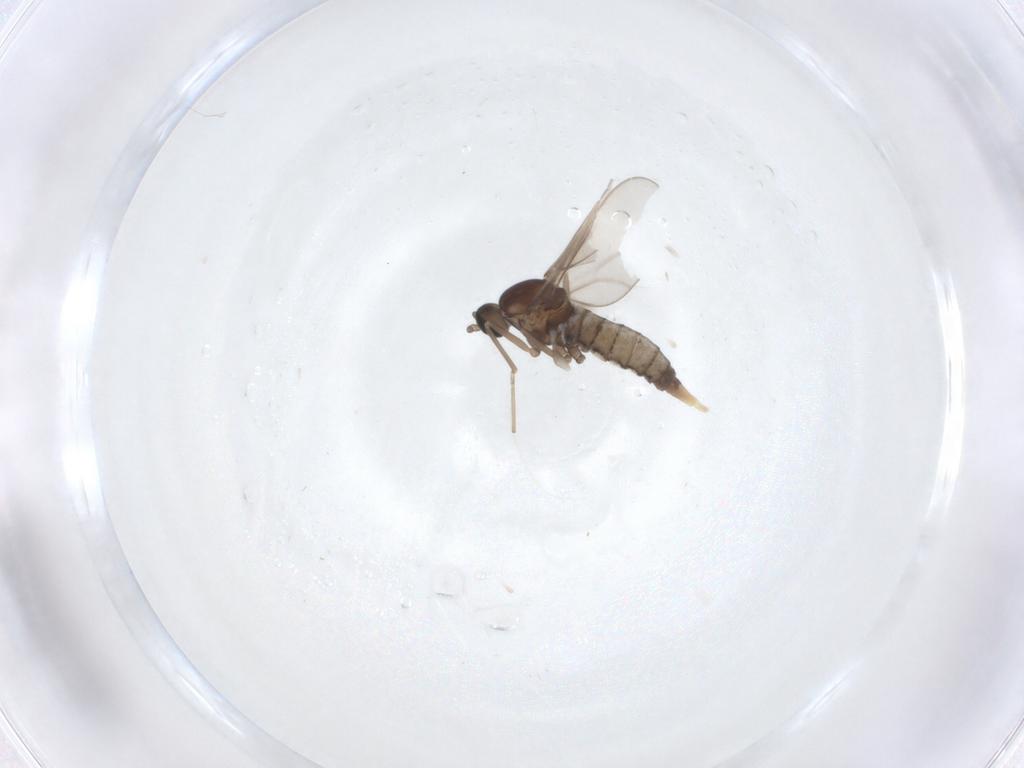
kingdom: Animalia
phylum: Arthropoda
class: Insecta
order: Diptera
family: Cecidomyiidae
